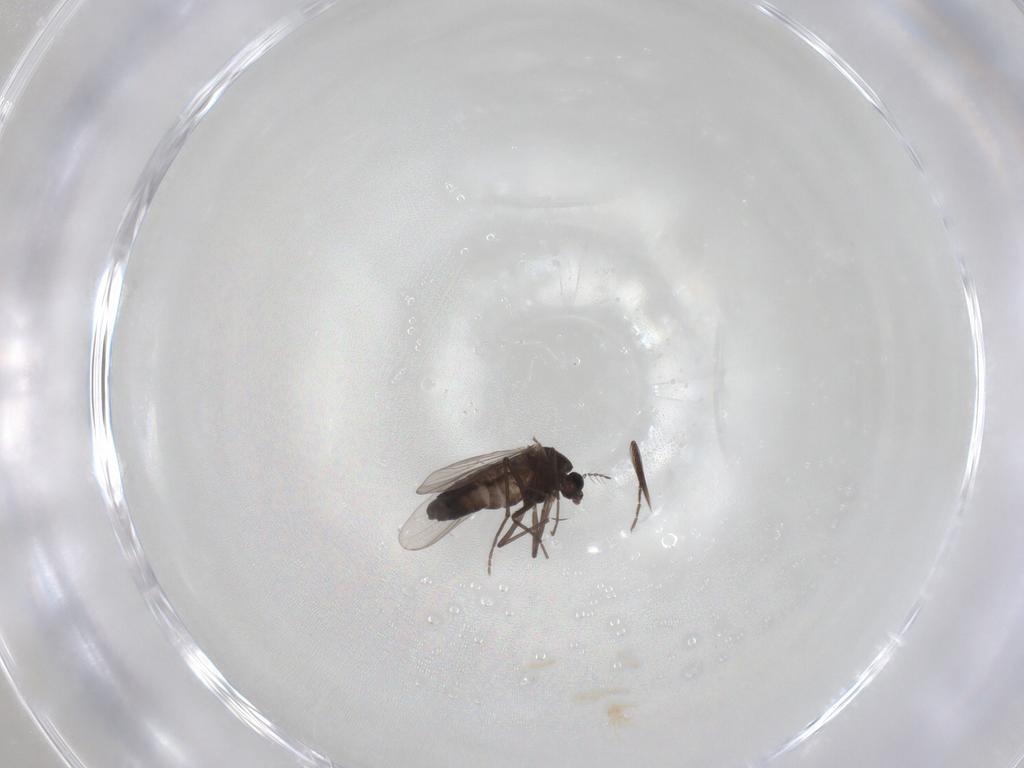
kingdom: Animalia
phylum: Arthropoda
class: Insecta
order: Diptera
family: Chironomidae
